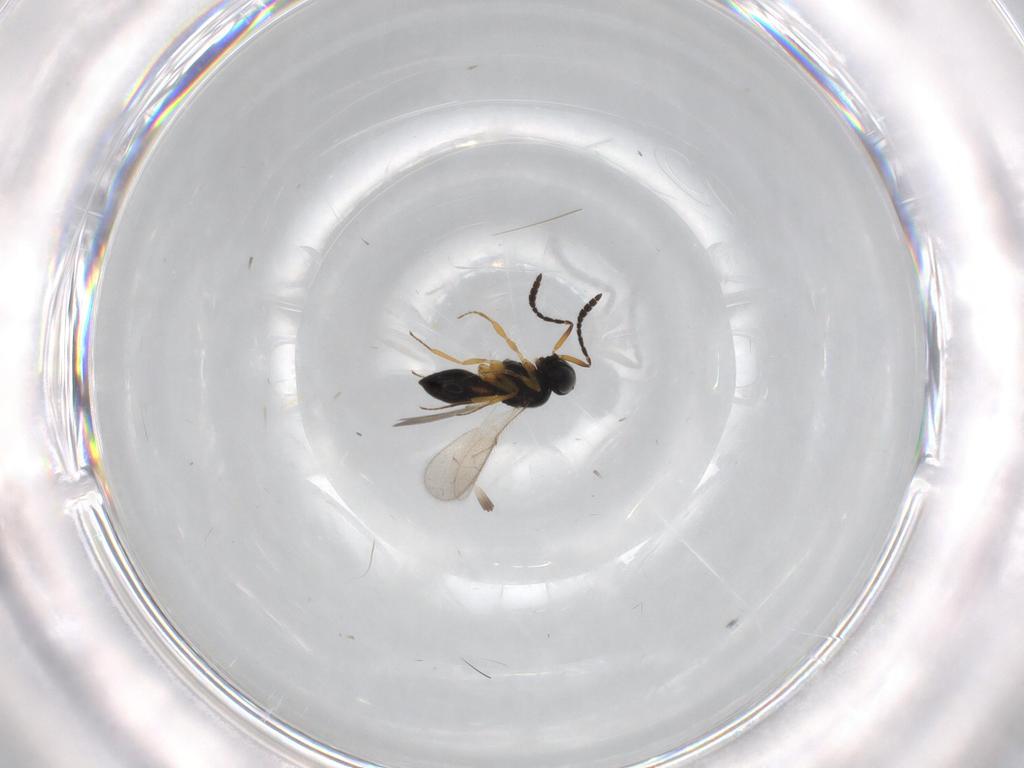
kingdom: Animalia
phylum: Arthropoda
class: Insecta
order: Hymenoptera
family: Scelionidae
